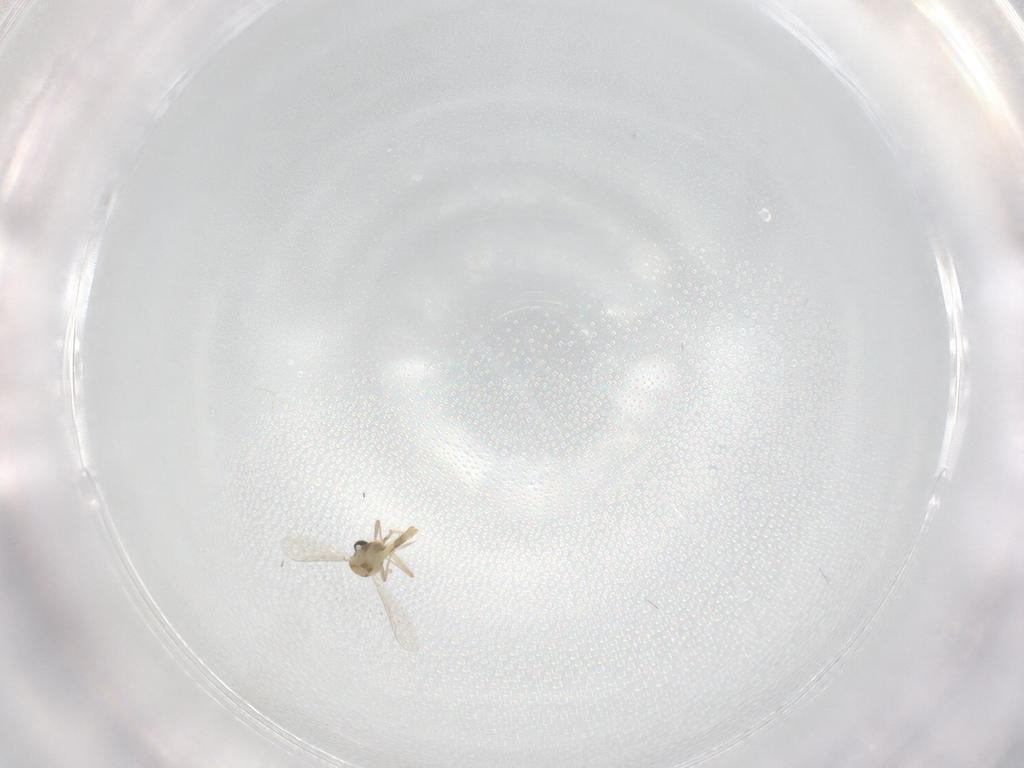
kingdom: Animalia
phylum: Arthropoda
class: Insecta
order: Diptera
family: Chironomidae
